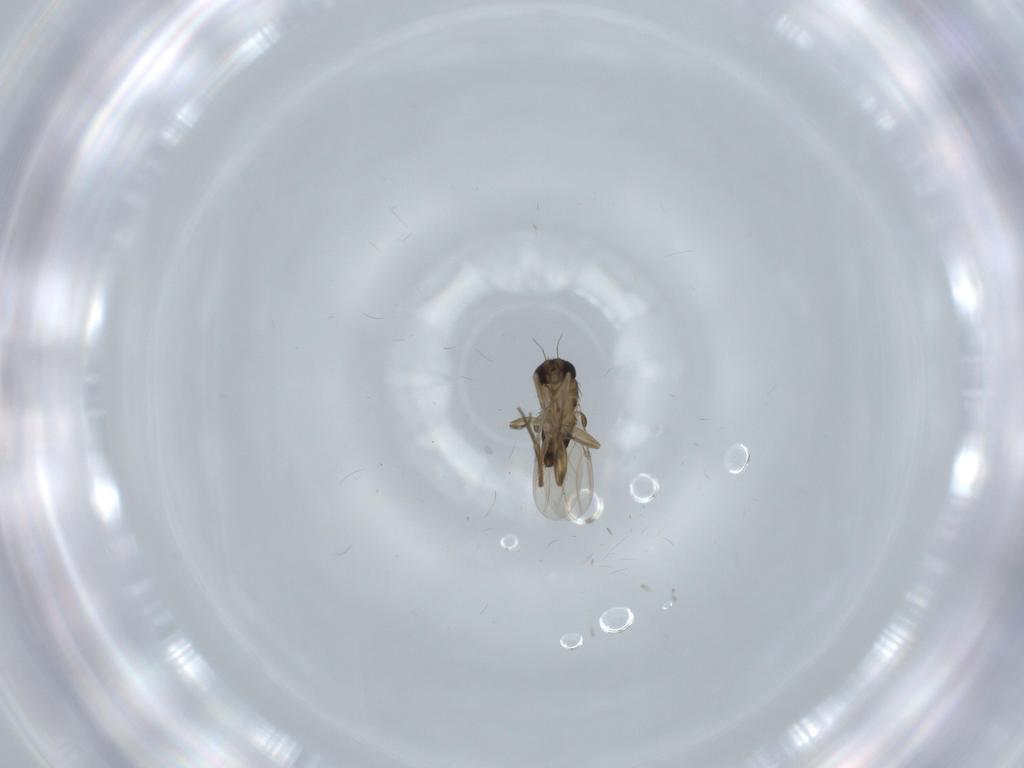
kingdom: Animalia
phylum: Arthropoda
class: Insecta
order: Diptera
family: Phoridae
